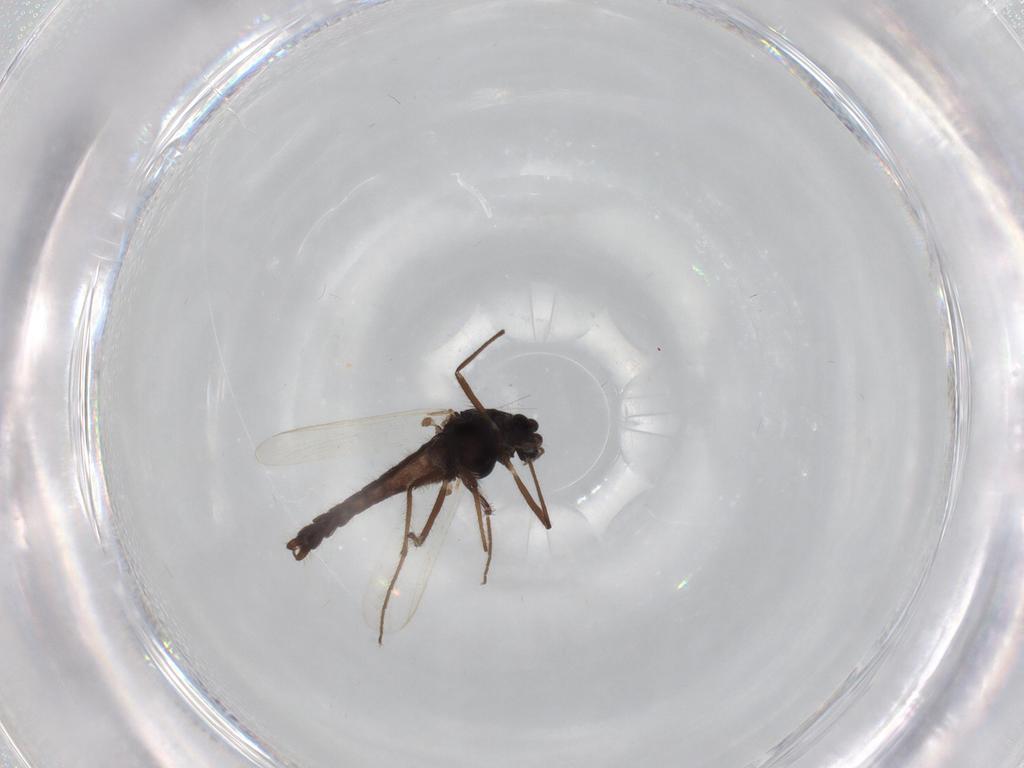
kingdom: Animalia
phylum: Arthropoda
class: Insecta
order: Diptera
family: Drosophilidae
